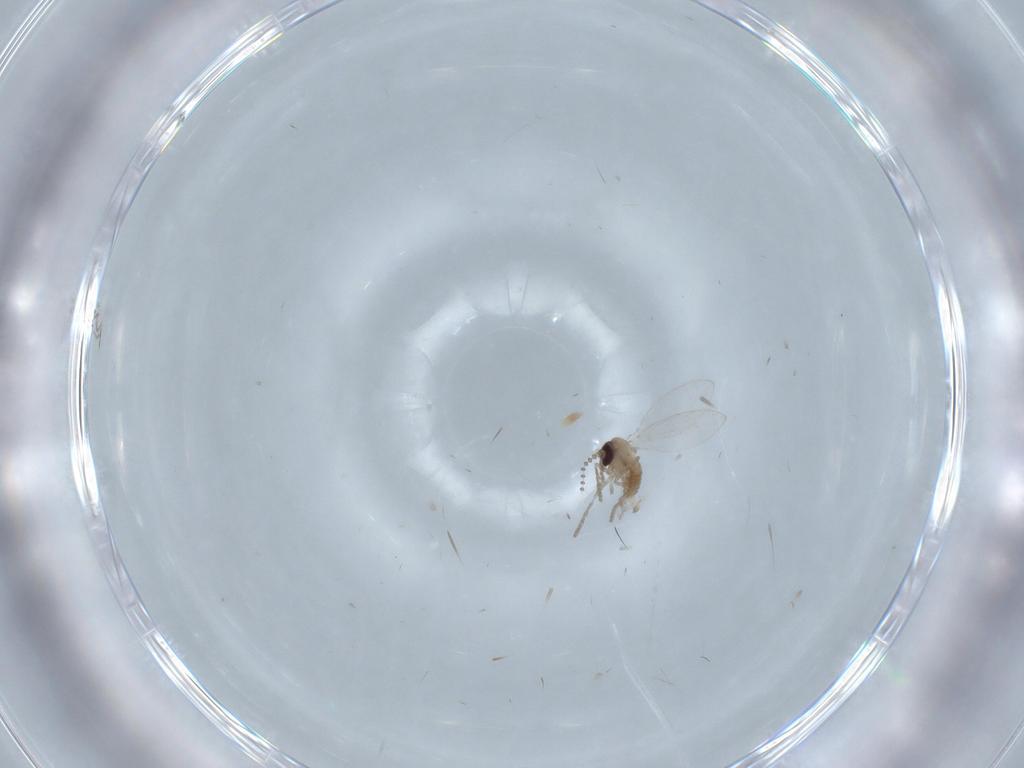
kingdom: Animalia
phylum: Arthropoda
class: Insecta
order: Diptera
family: Psychodidae
